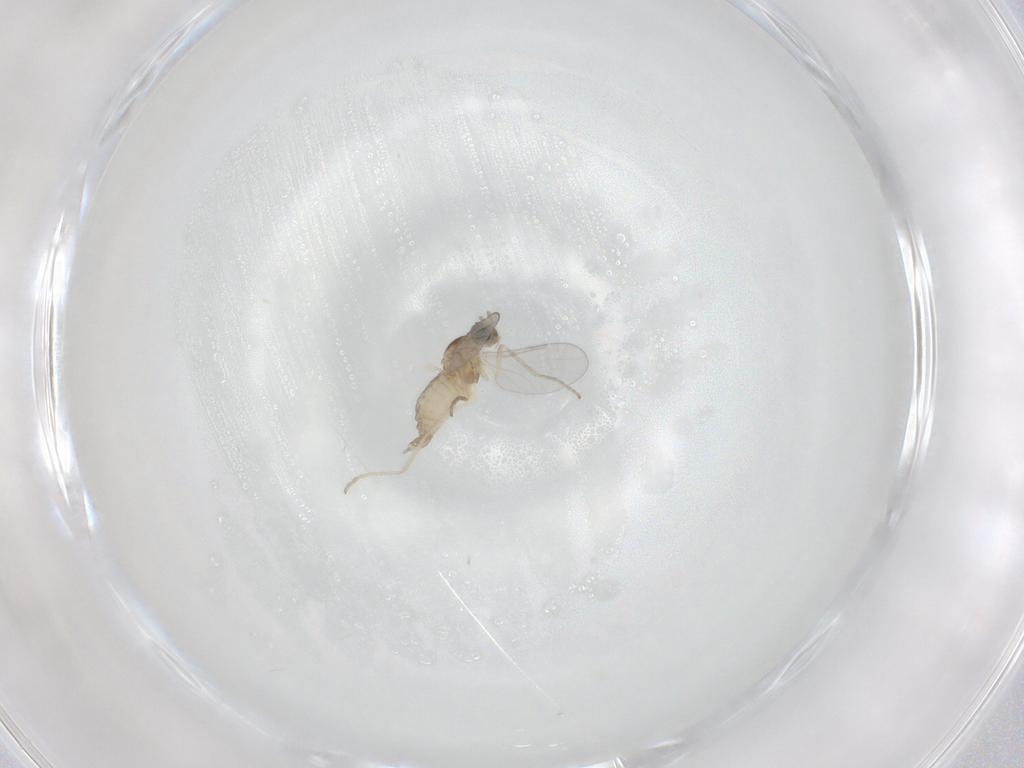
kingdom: Animalia
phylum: Arthropoda
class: Insecta
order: Diptera
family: Cecidomyiidae
